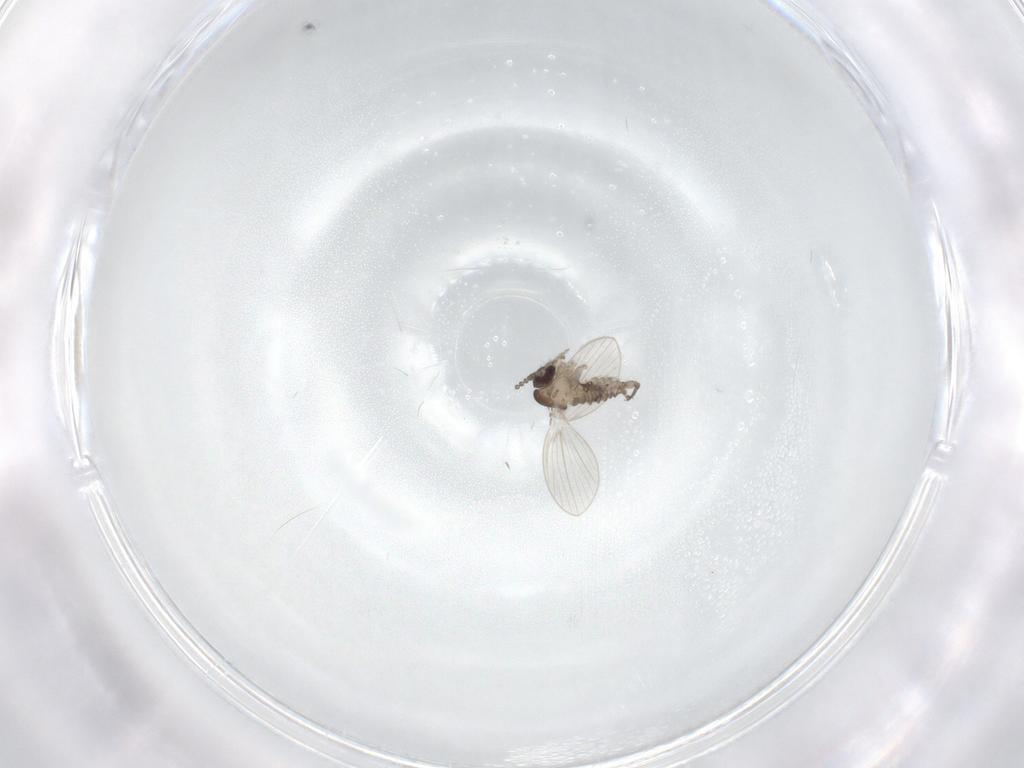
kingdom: Animalia
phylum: Arthropoda
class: Insecta
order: Diptera
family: Psychodidae
